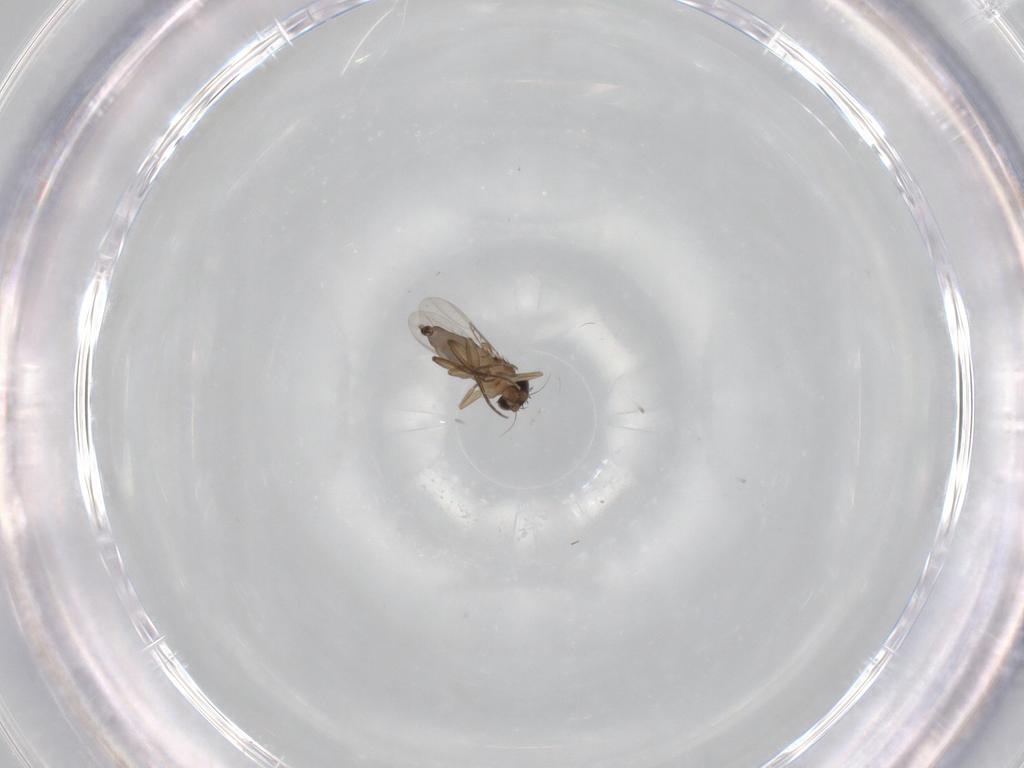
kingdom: Animalia
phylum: Arthropoda
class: Insecta
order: Diptera
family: Phoridae
